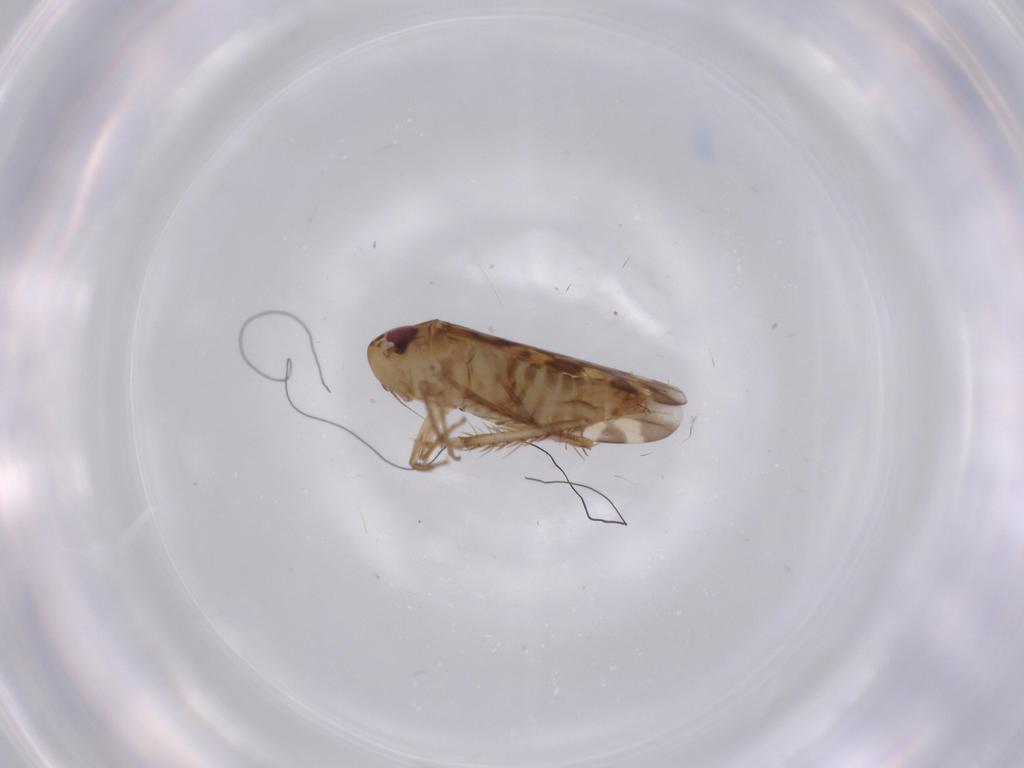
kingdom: Animalia
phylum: Arthropoda
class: Insecta
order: Hemiptera
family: Cicadellidae
